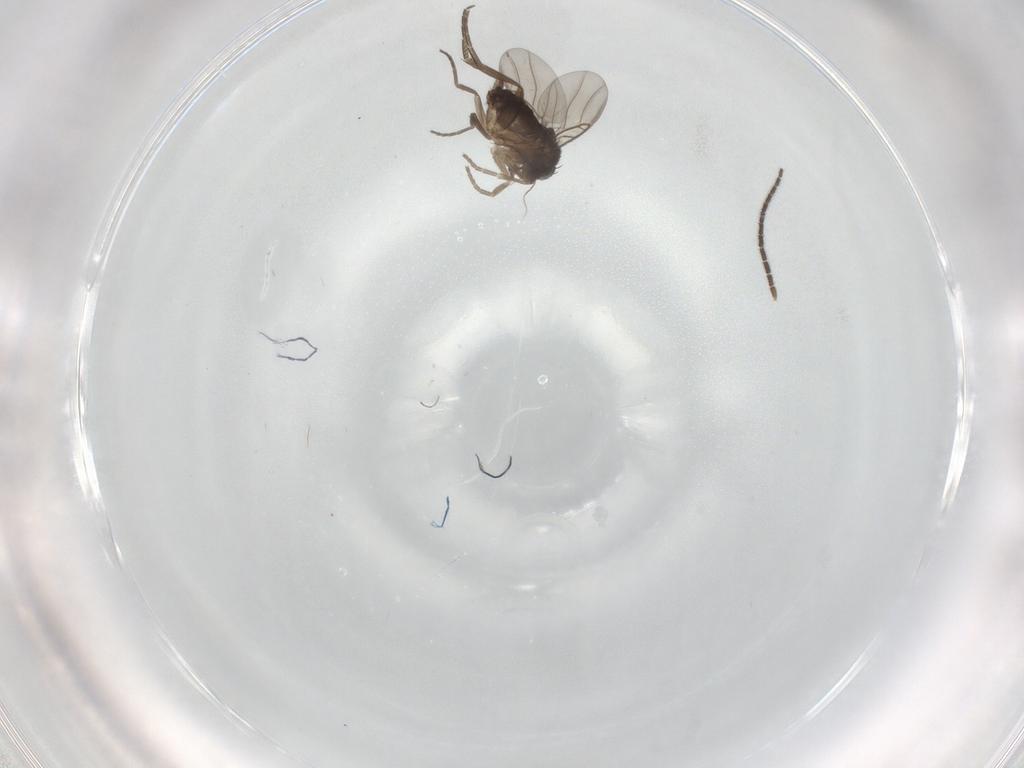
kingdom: Animalia
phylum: Arthropoda
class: Insecta
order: Diptera
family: Sciaridae
